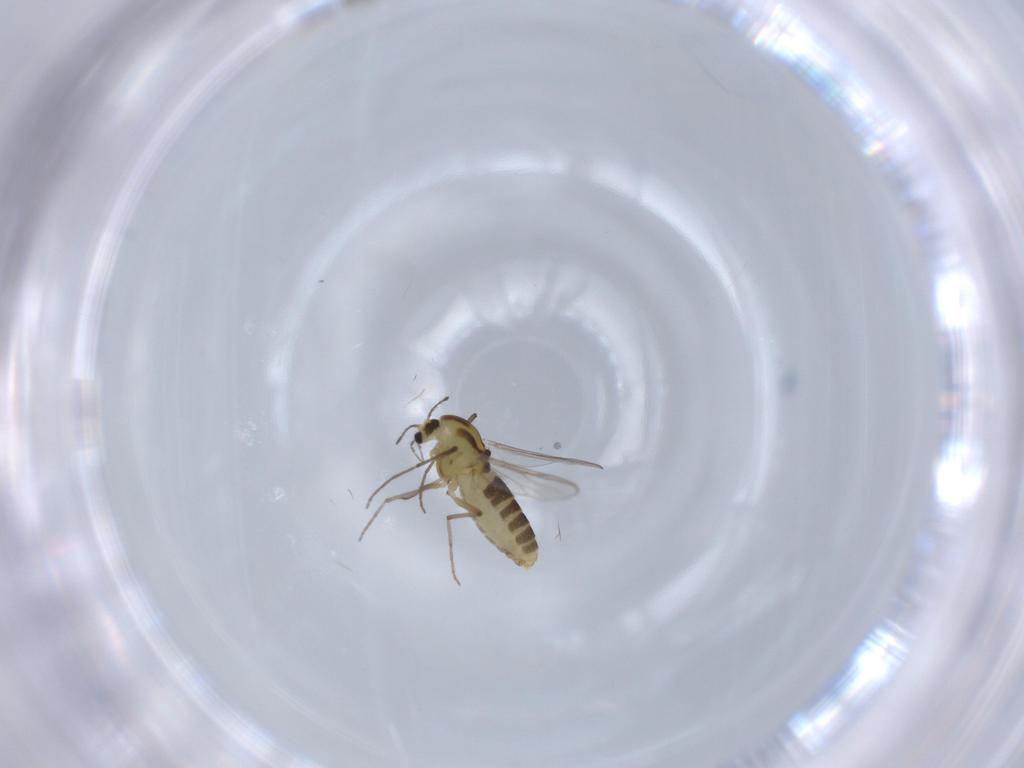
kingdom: Animalia
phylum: Arthropoda
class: Insecta
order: Diptera
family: Chironomidae
